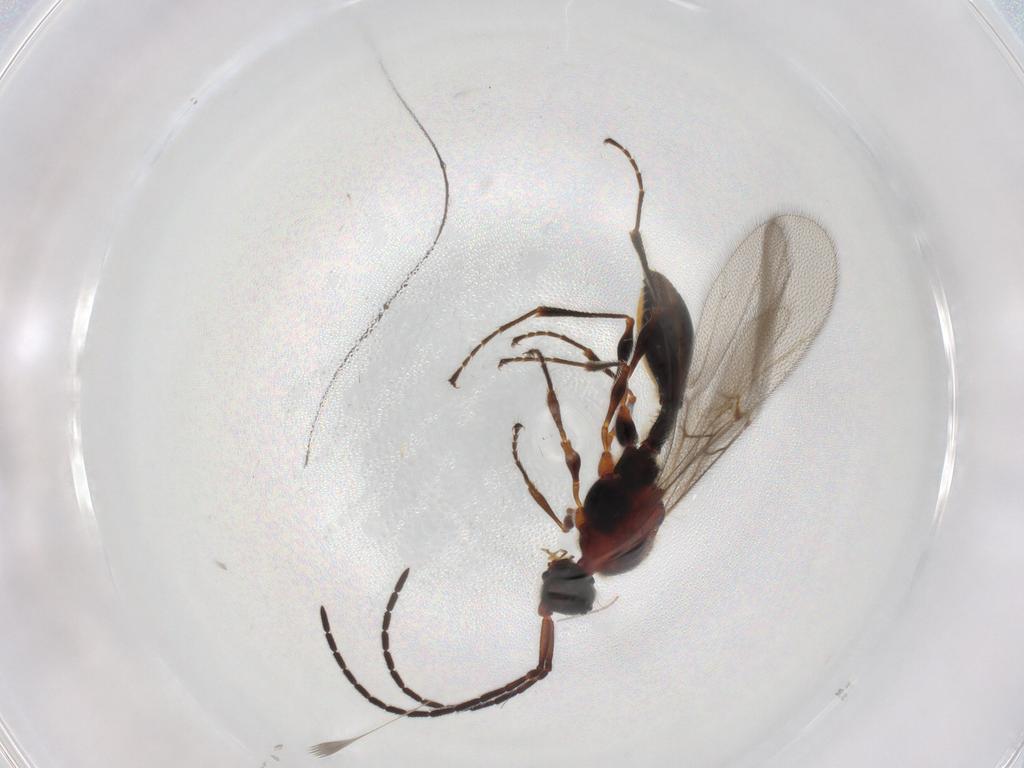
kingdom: Animalia
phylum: Arthropoda
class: Insecta
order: Hymenoptera
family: Diapriidae
